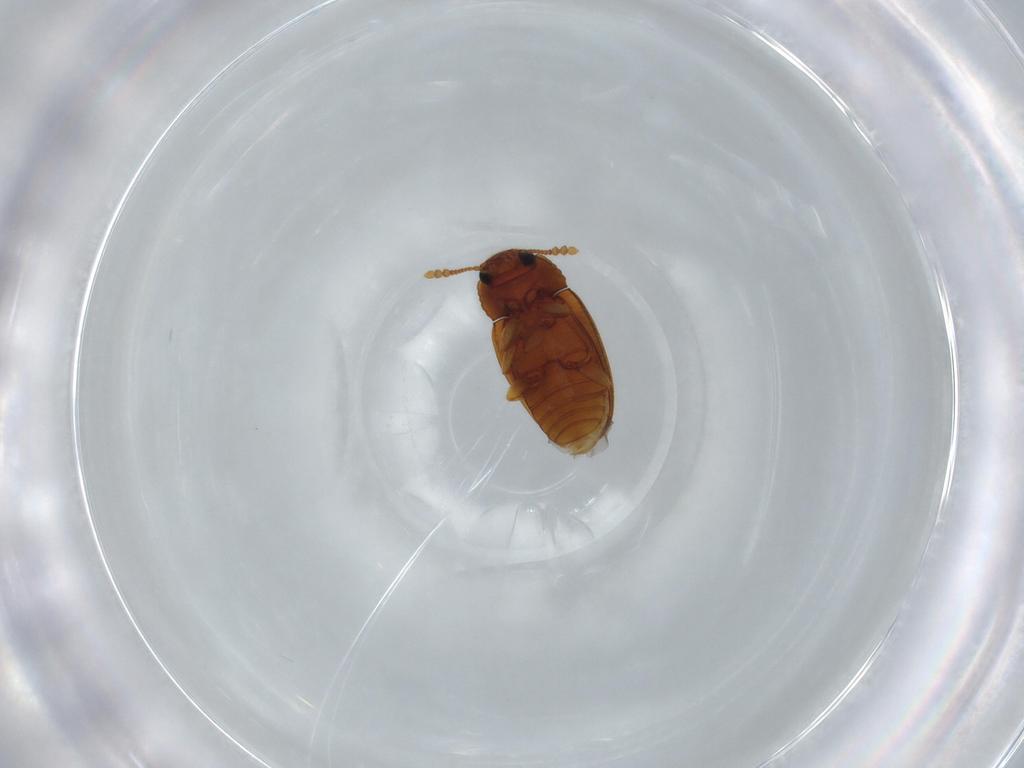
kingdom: Animalia
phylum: Arthropoda
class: Insecta
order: Coleoptera
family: Erotylidae
